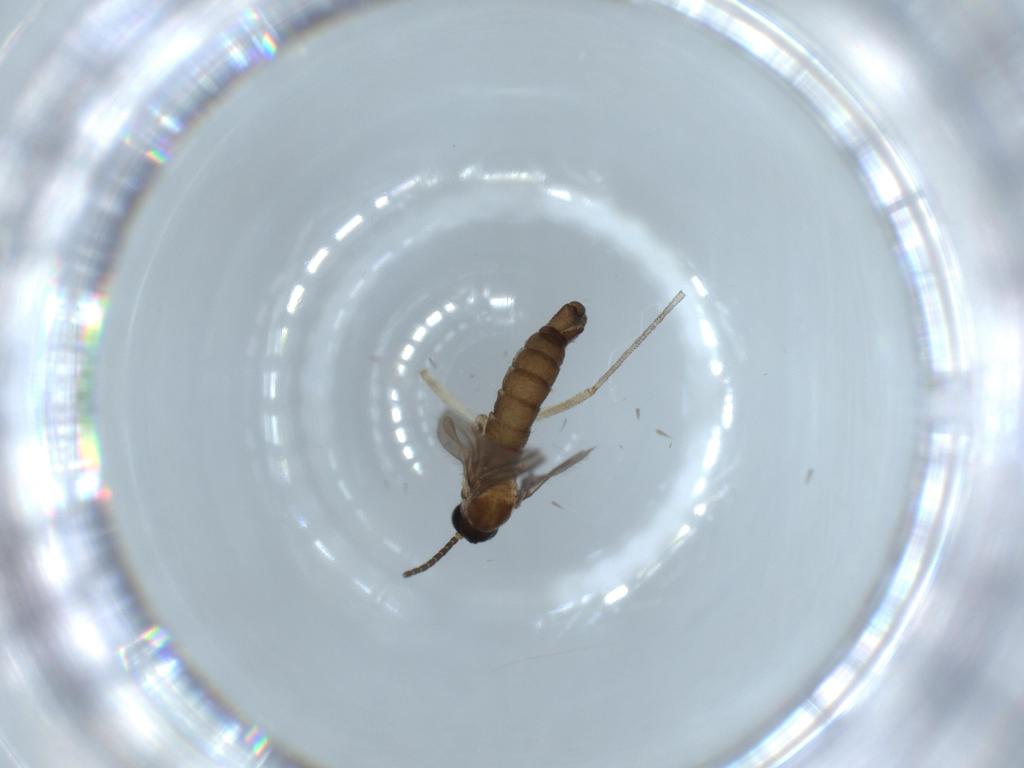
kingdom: Animalia
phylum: Arthropoda
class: Insecta
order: Diptera
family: Sciaridae
